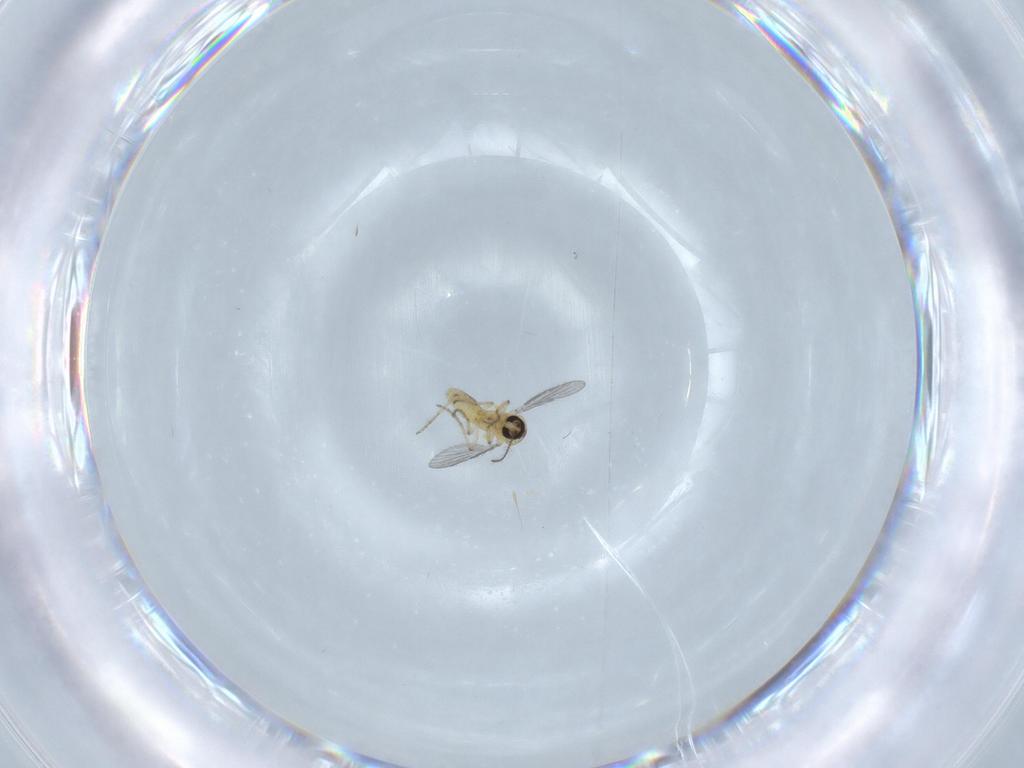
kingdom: Animalia
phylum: Arthropoda
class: Insecta
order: Diptera
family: Ceratopogonidae
